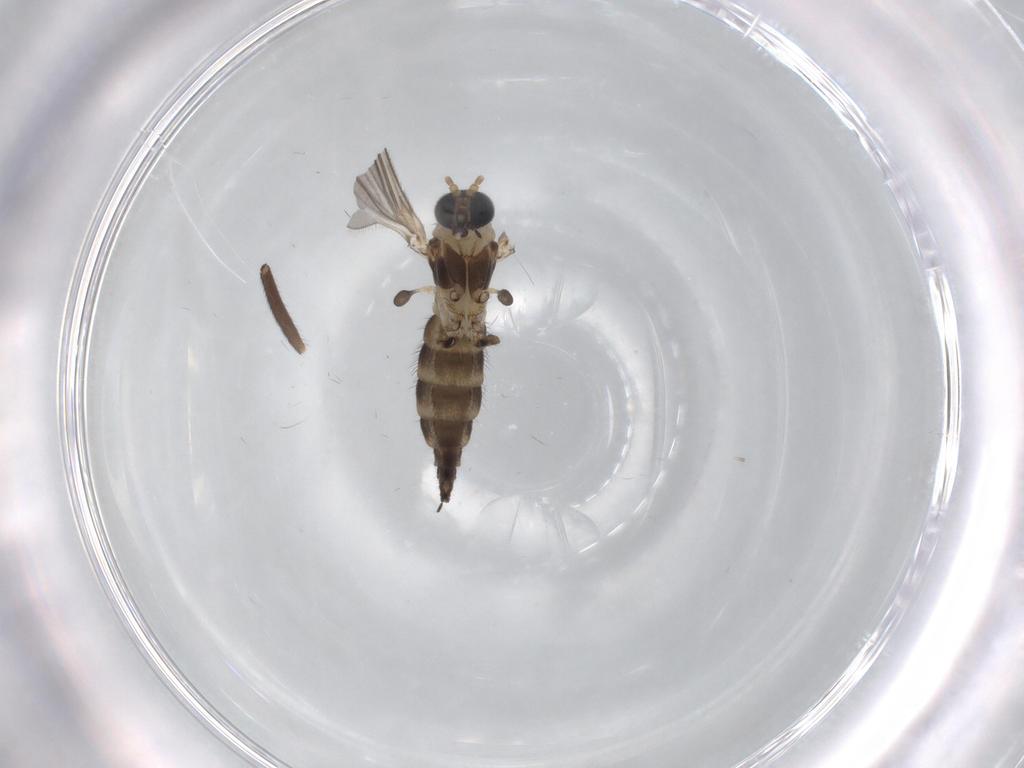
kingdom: Animalia
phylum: Arthropoda
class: Insecta
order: Diptera
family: Sciaridae
